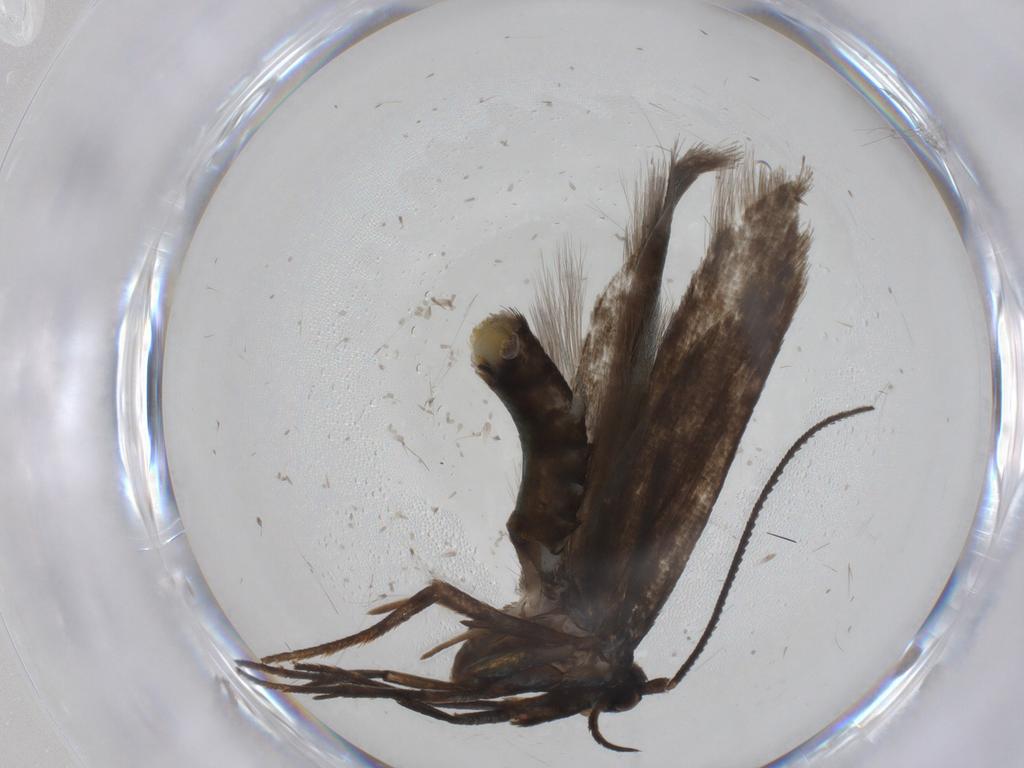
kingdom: Animalia
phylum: Arthropoda
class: Insecta
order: Lepidoptera
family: Argyresthiidae
